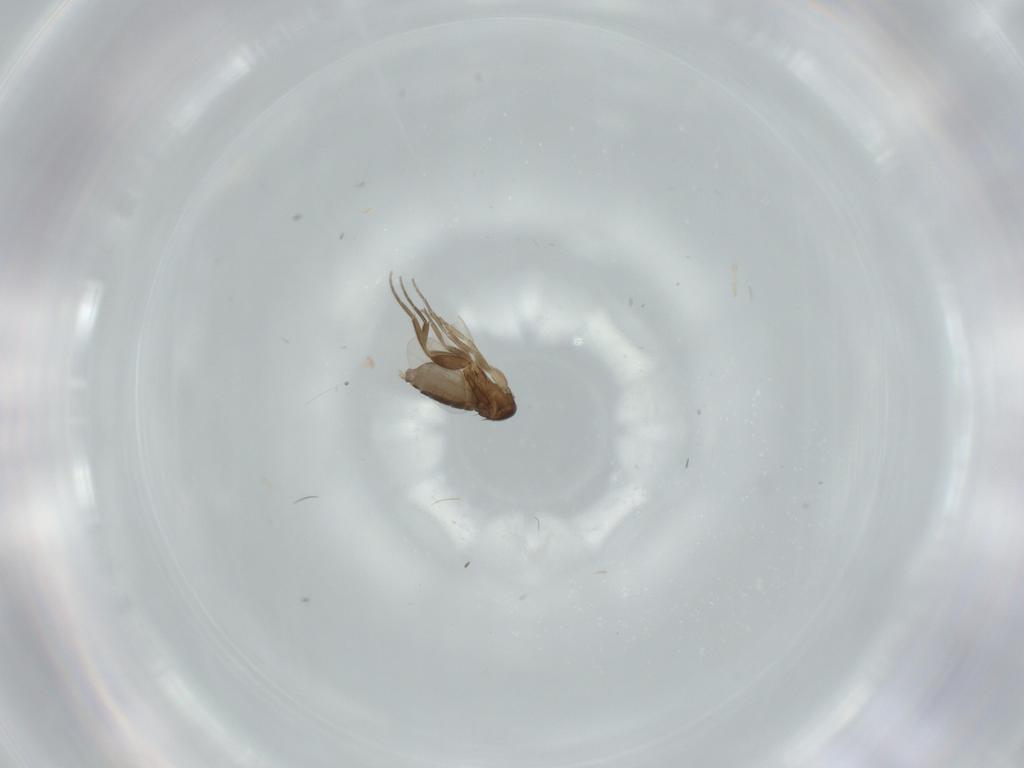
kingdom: Animalia
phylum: Arthropoda
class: Insecta
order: Diptera
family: Phoridae
